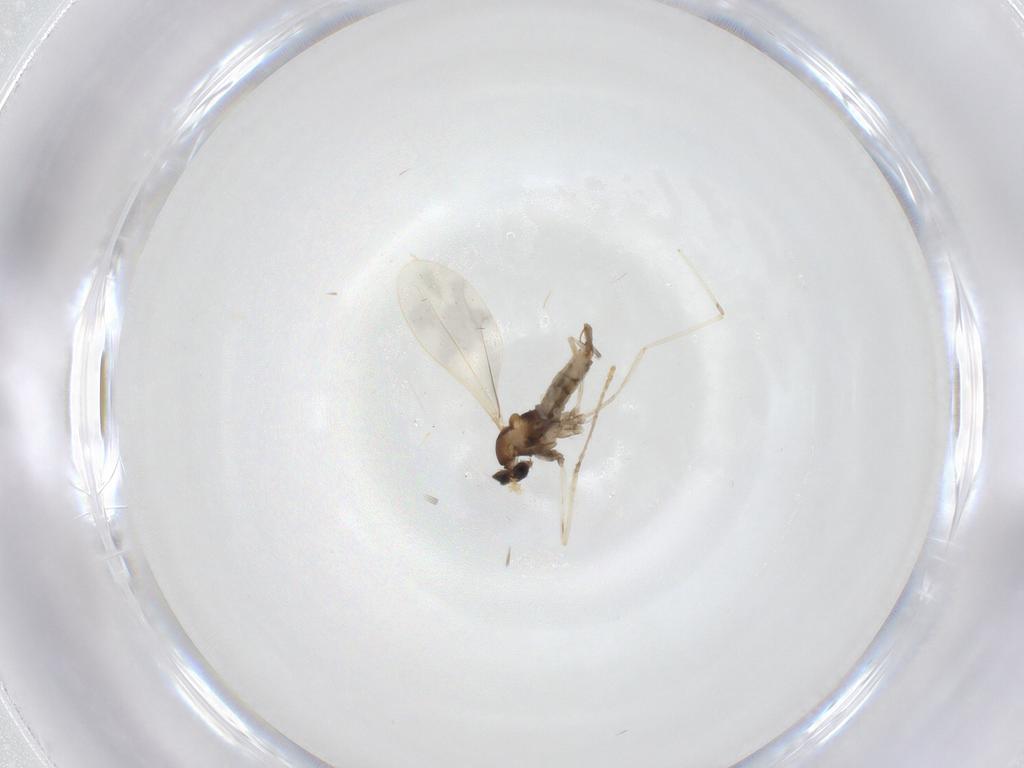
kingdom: Animalia
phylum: Arthropoda
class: Insecta
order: Diptera
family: Cecidomyiidae
